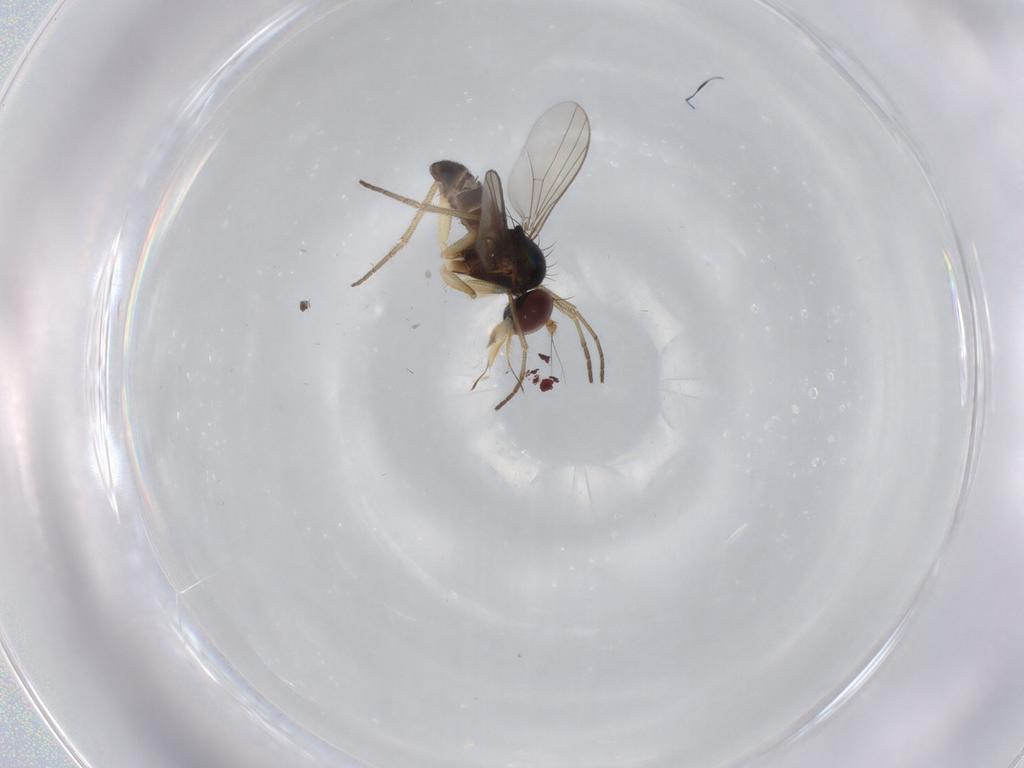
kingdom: Animalia
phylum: Arthropoda
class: Insecta
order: Diptera
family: Dolichopodidae
